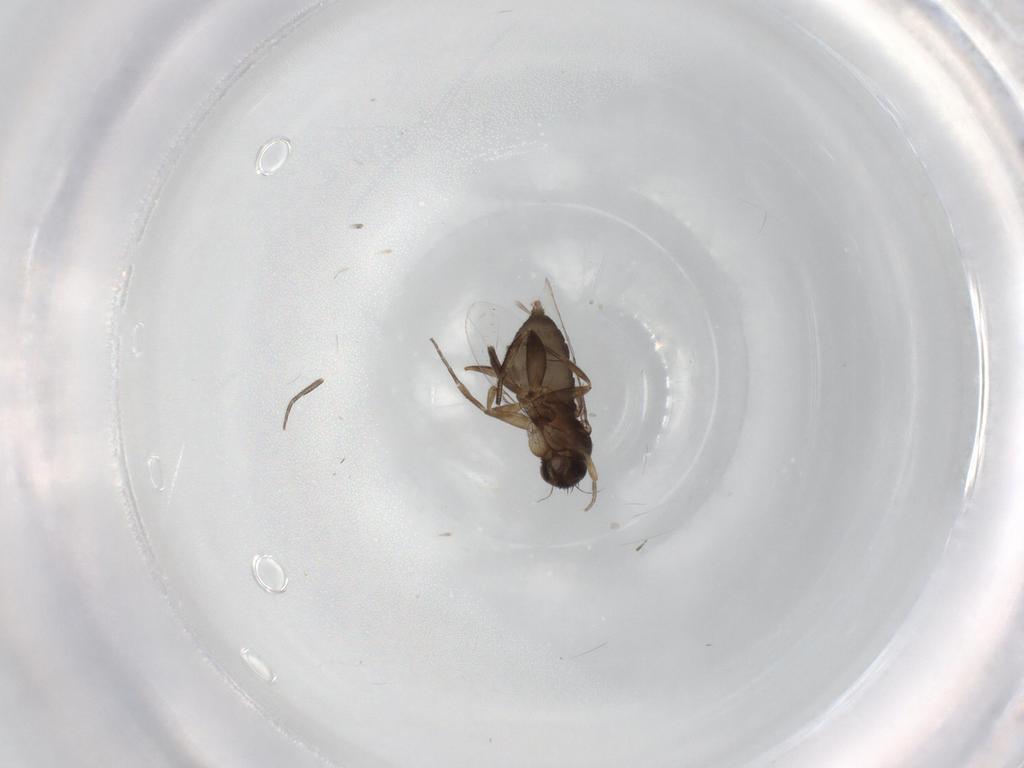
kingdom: Animalia
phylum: Arthropoda
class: Insecta
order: Diptera
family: Phoridae
